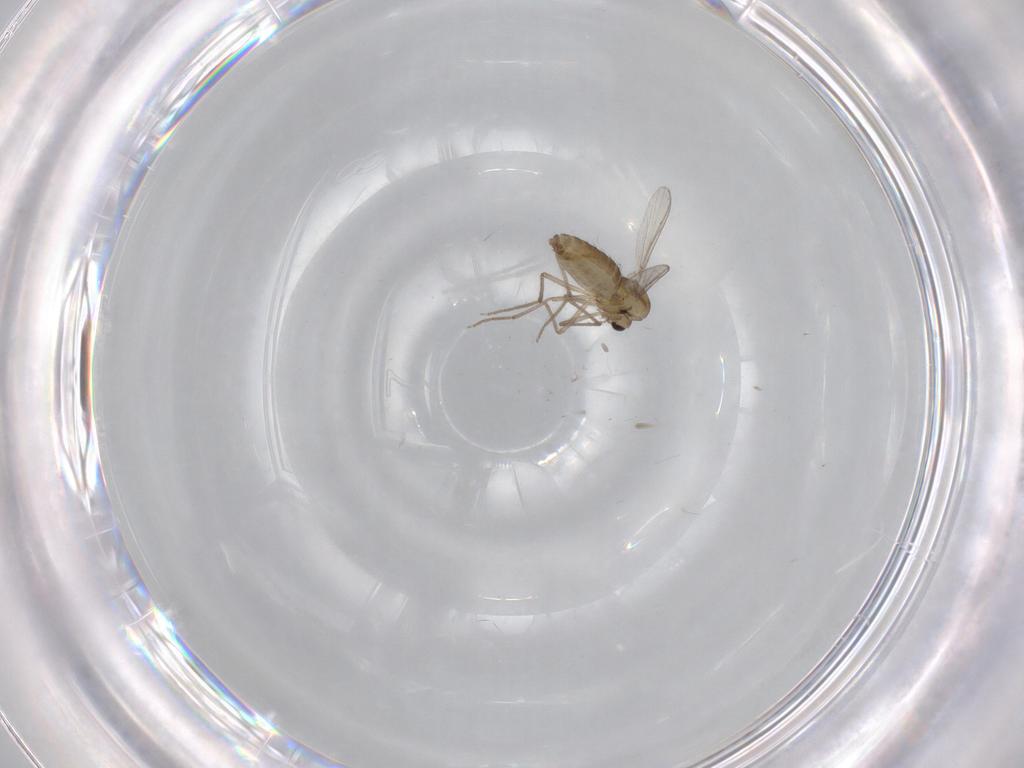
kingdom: Animalia
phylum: Arthropoda
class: Insecta
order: Diptera
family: Chironomidae
